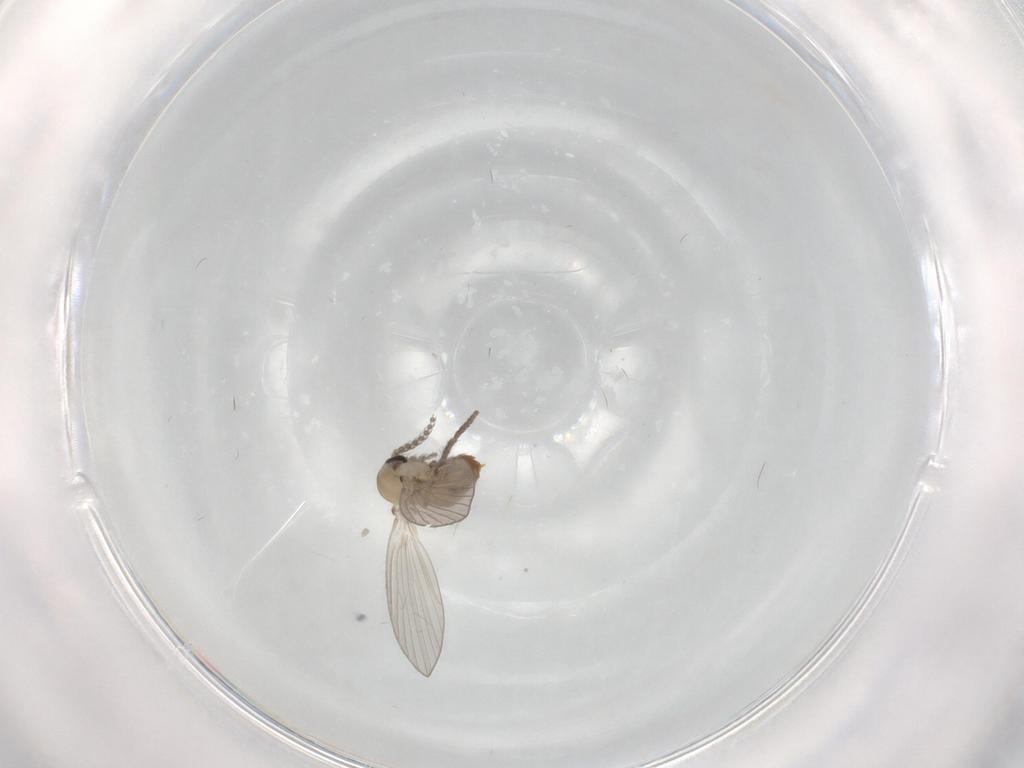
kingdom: Animalia
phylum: Arthropoda
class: Insecta
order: Diptera
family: Psychodidae
